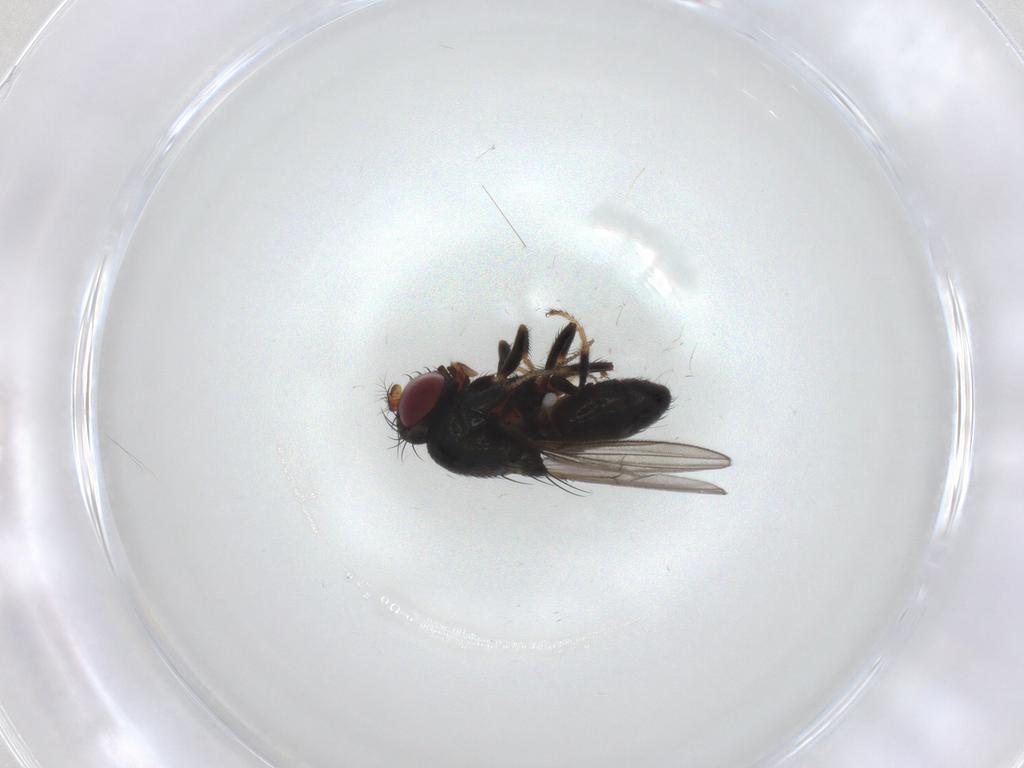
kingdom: Animalia
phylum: Arthropoda
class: Insecta
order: Diptera
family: Ephydridae
